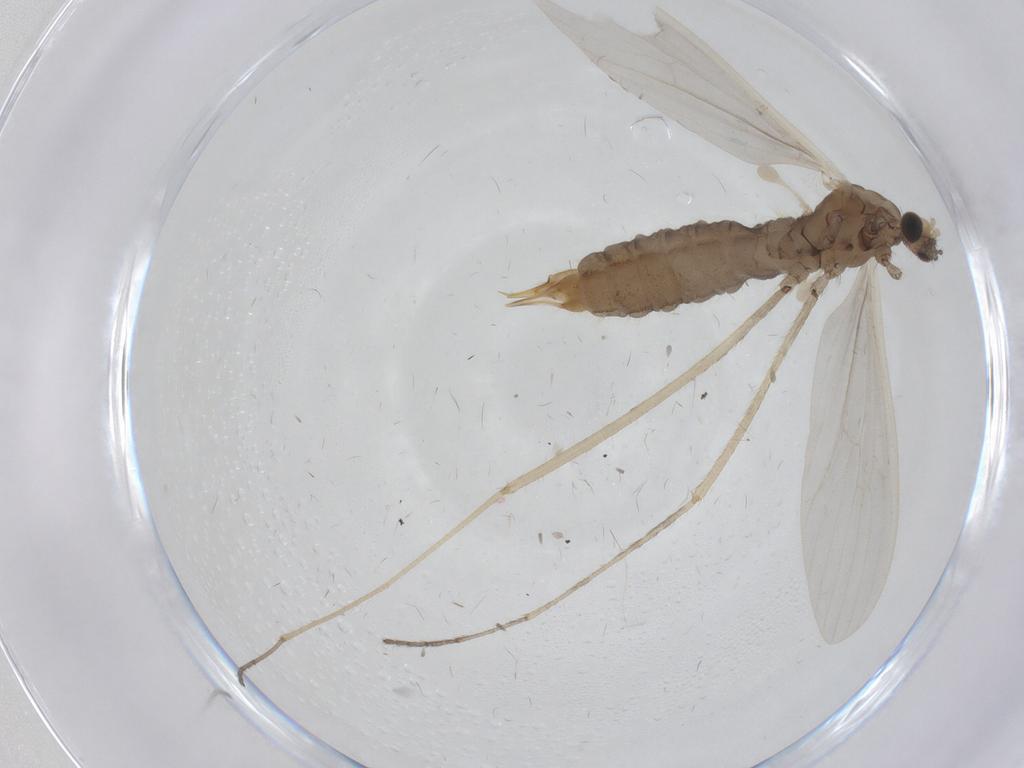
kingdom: Animalia
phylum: Arthropoda
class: Insecta
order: Diptera
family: Limoniidae
